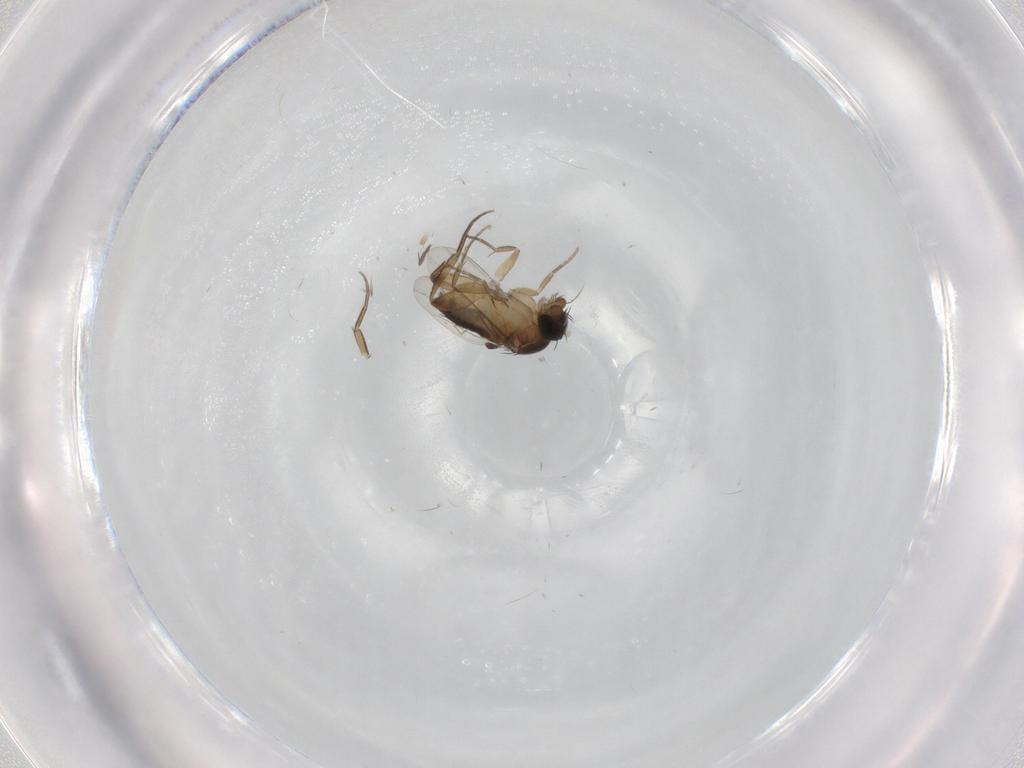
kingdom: Animalia
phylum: Arthropoda
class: Insecta
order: Diptera
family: Phoridae
